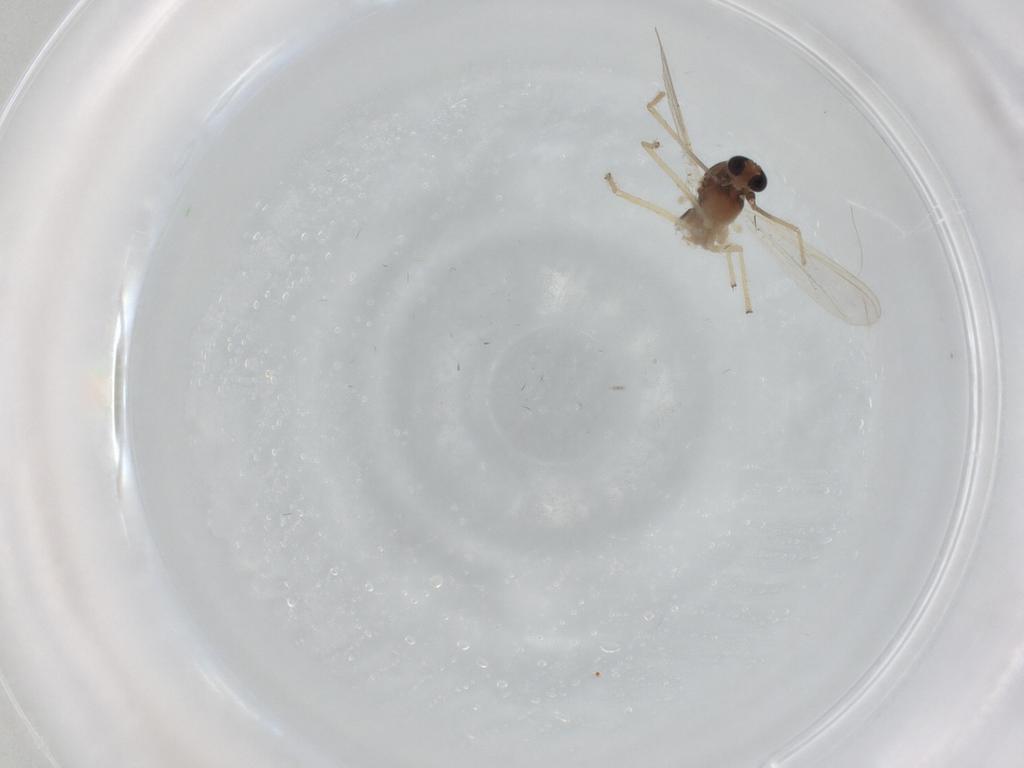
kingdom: Animalia
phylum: Arthropoda
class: Insecta
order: Diptera
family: Chironomidae
